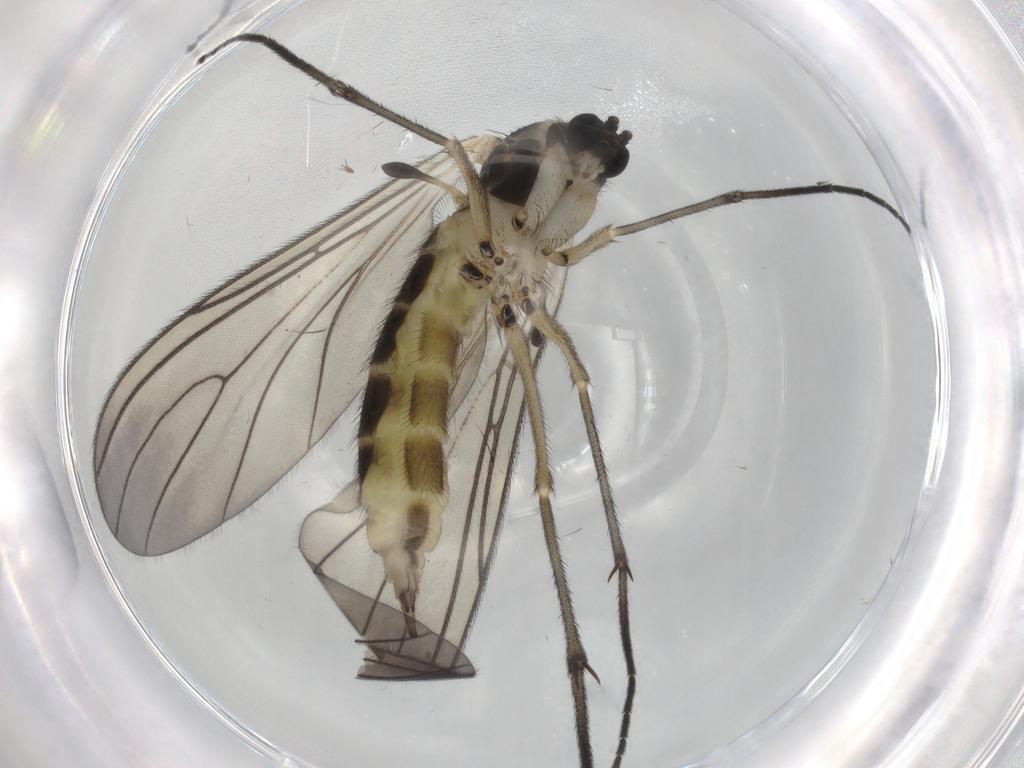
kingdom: Animalia
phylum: Arthropoda
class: Insecta
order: Diptera
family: Sciaridae
